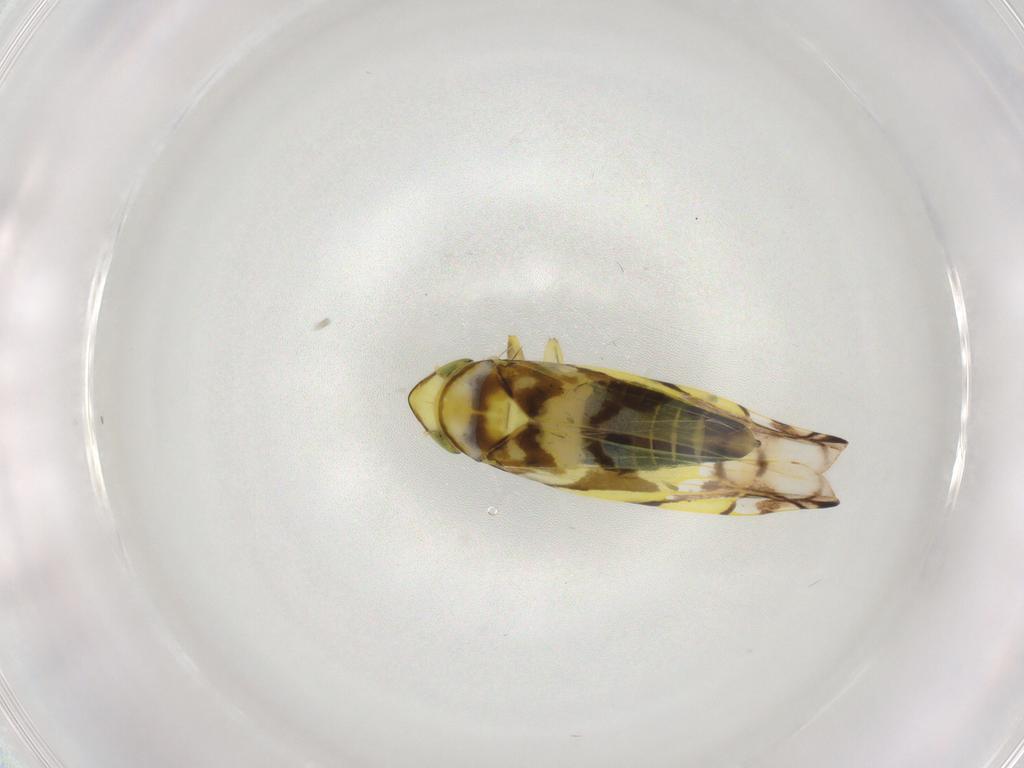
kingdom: Animalia
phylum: Arthropoda
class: Insecta
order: Hemiptera
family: Cicadellidae
